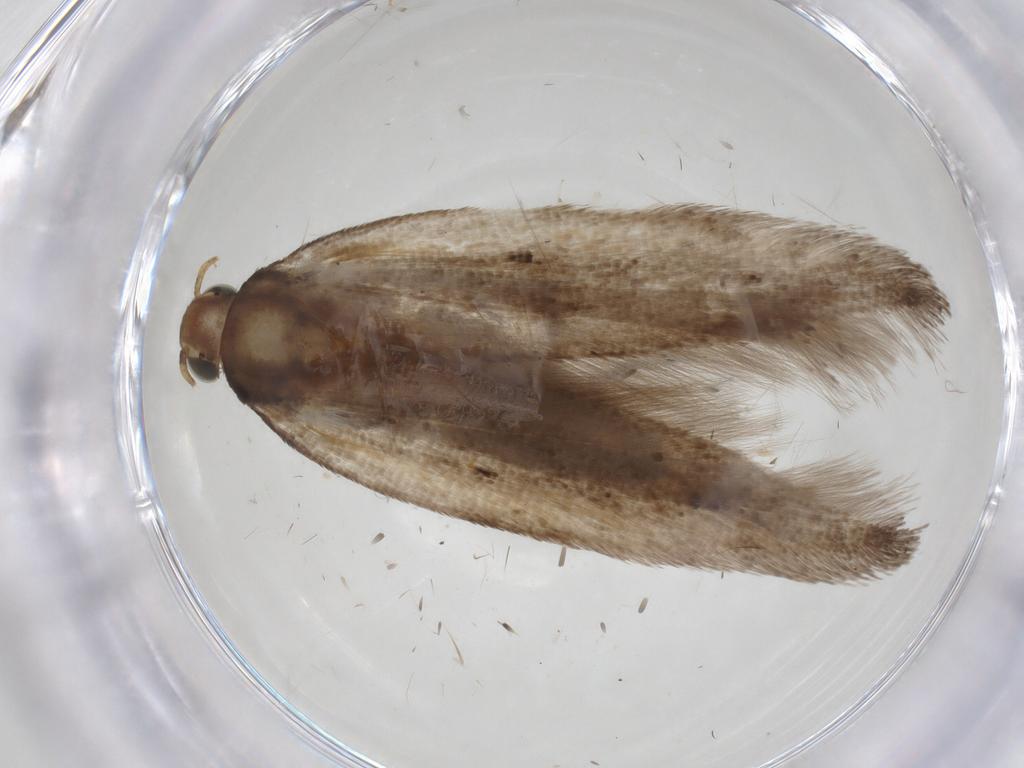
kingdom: Animalia
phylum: Arthropoda
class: Insecta
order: Lepidoptera
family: Gelechiidae
